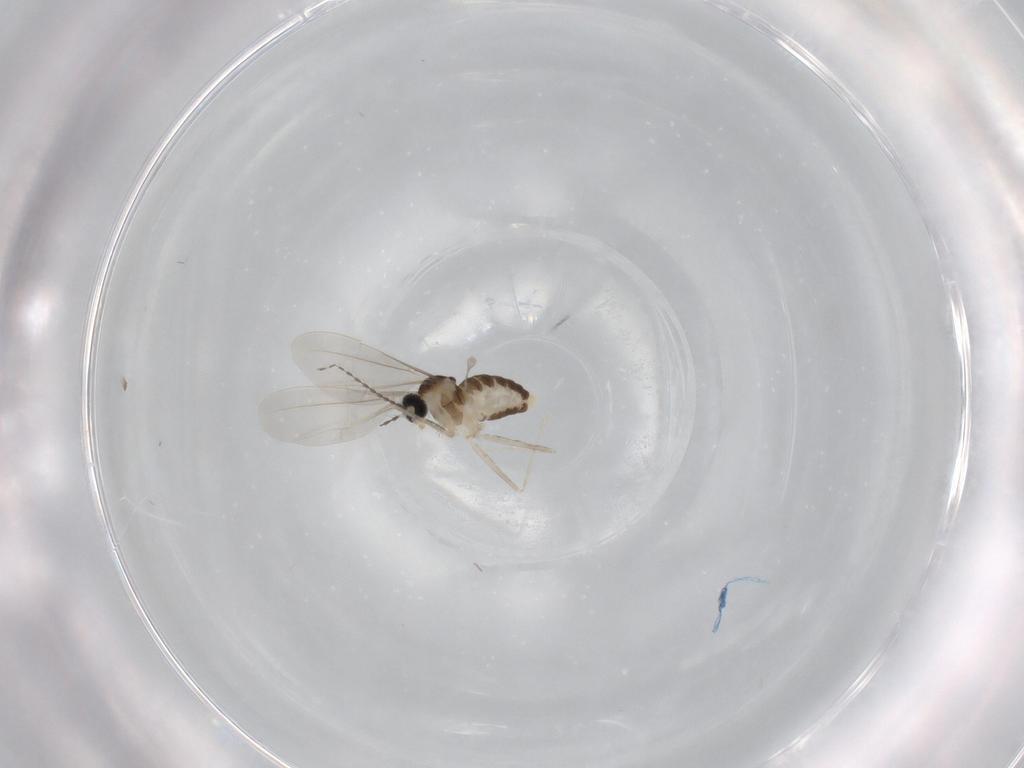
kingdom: Animalia
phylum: Arthropoda
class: Insecta
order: Diptera
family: Cecidomyiidae
